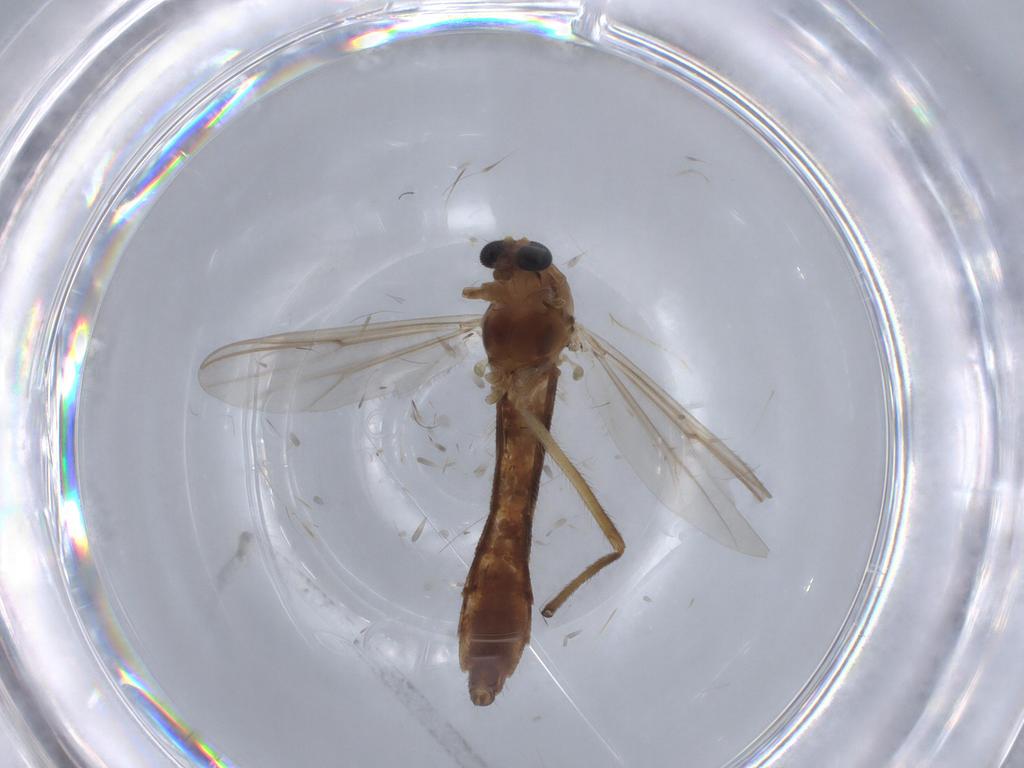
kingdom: Animalia
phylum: Arthropoda
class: Insecta
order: Diptera
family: Chironomidae
